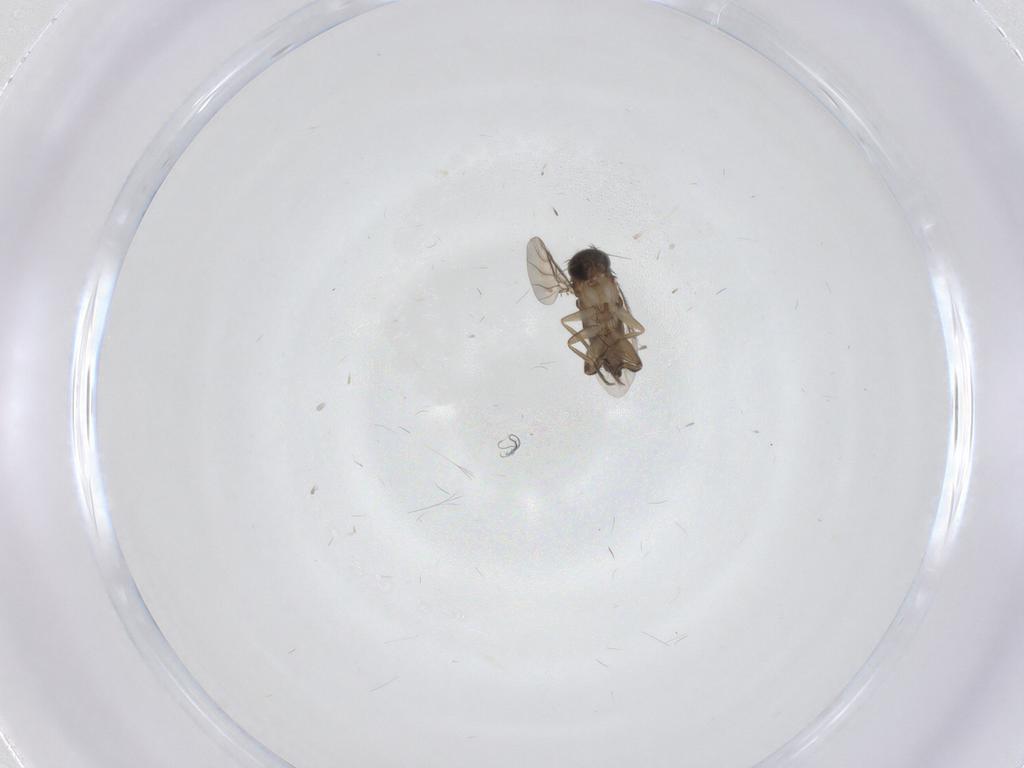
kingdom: Animalia
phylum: Arthropoda
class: Insecta
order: Diptera
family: Phoridae
